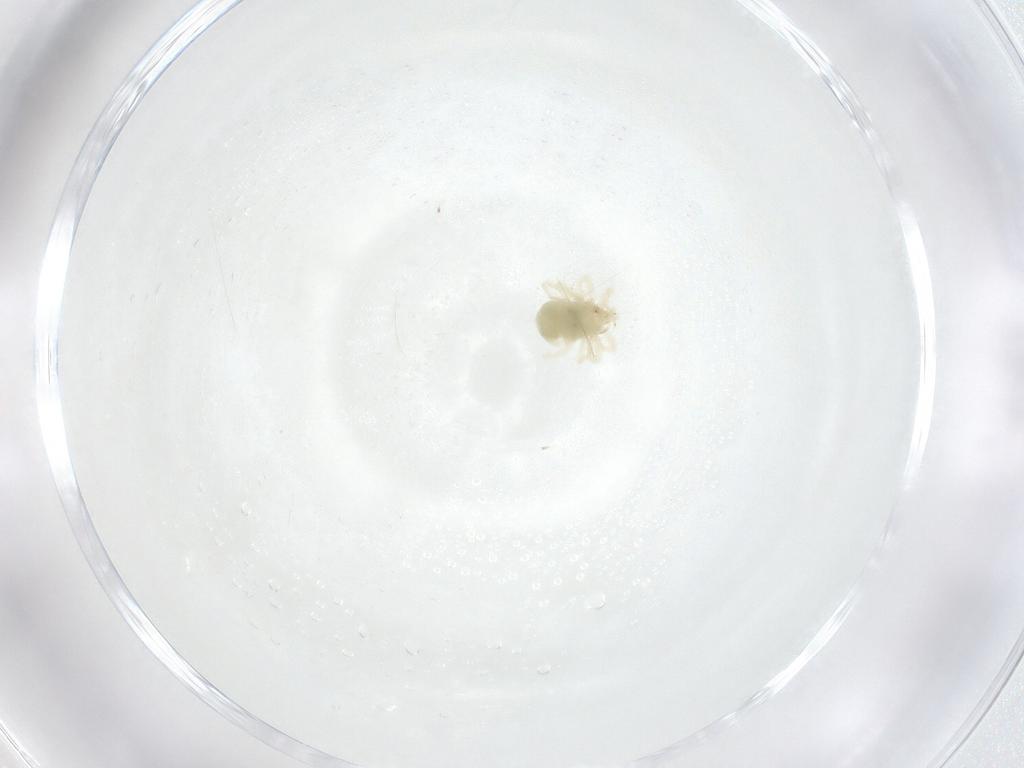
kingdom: Animalia
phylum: Arthropoda
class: Arachnida
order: Trombidiformes
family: Anystidae
